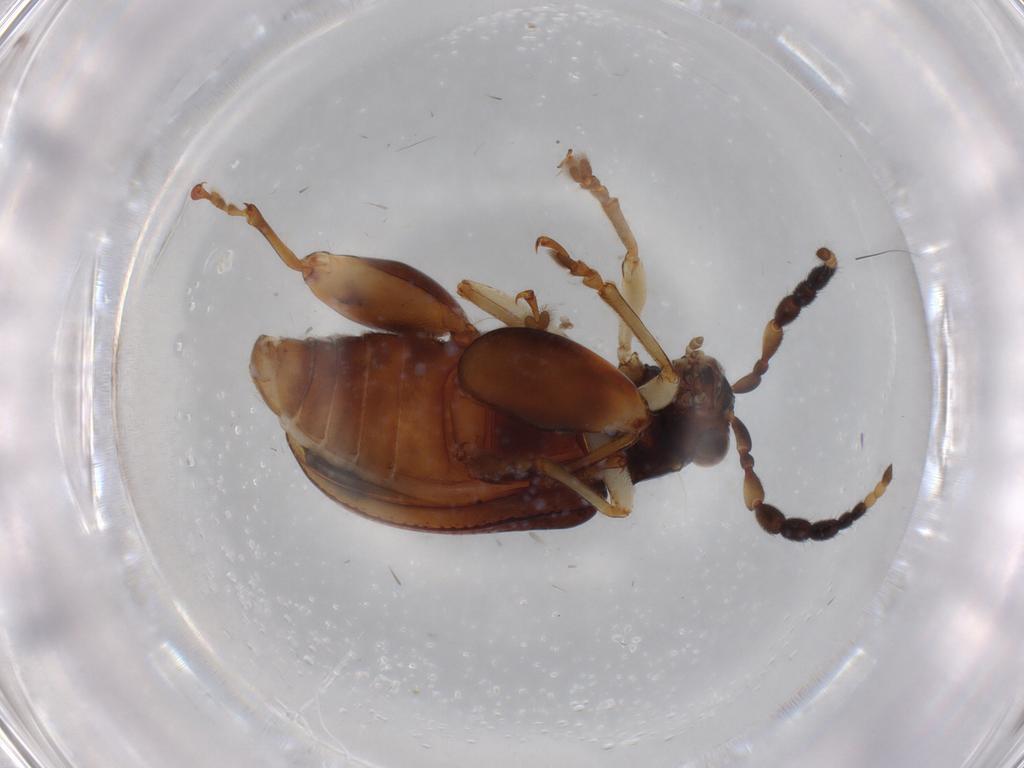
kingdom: Animalia
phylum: Arthropoda
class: Insecta
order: Coleoptera
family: Chrysomelidae
